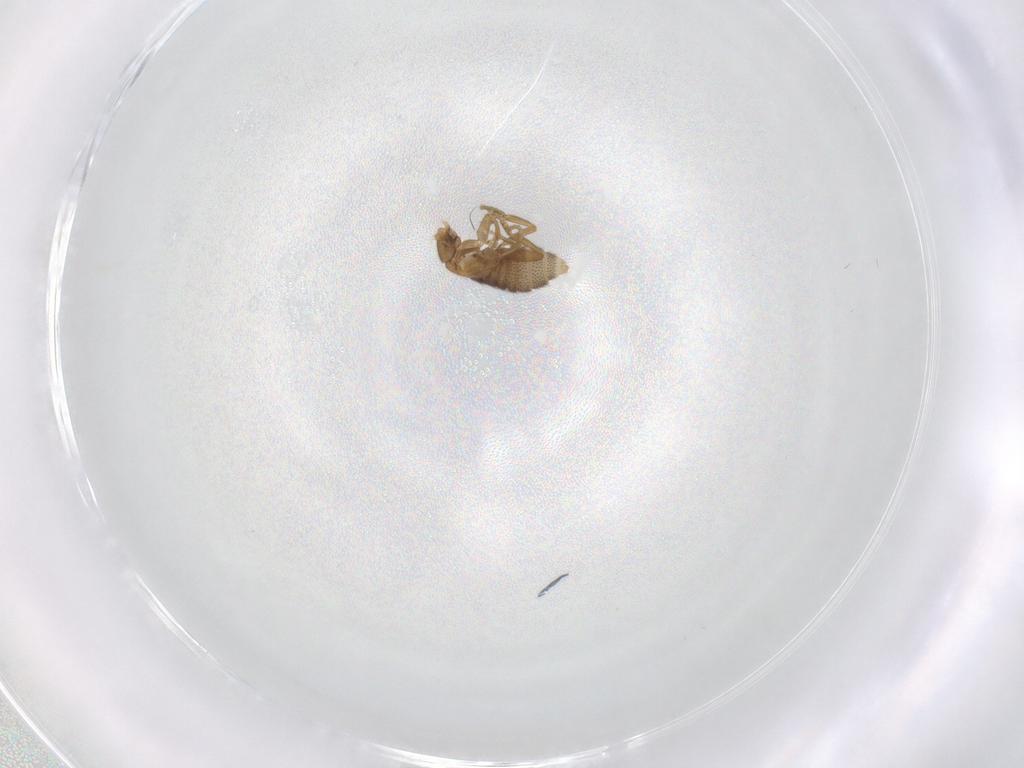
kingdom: Animalia
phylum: Arthropoda
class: Insecta
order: Diptera
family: Phoridae
